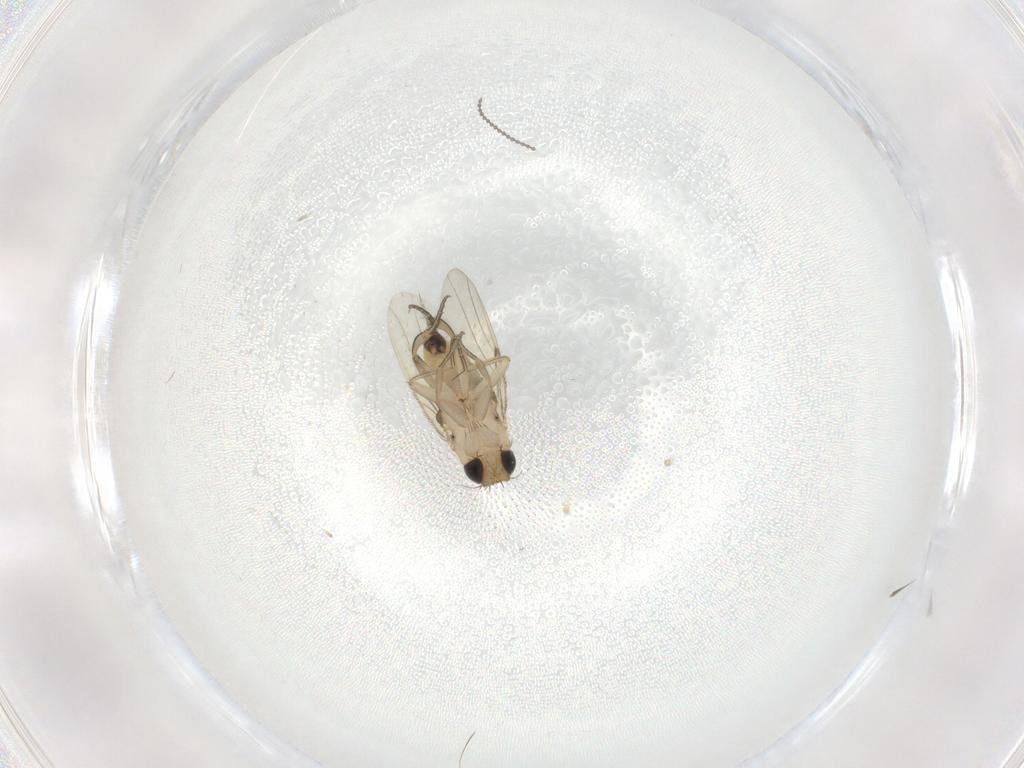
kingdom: Animalia
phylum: Arthropoda
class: Insecta
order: Diptera
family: Cecidomyiidae
